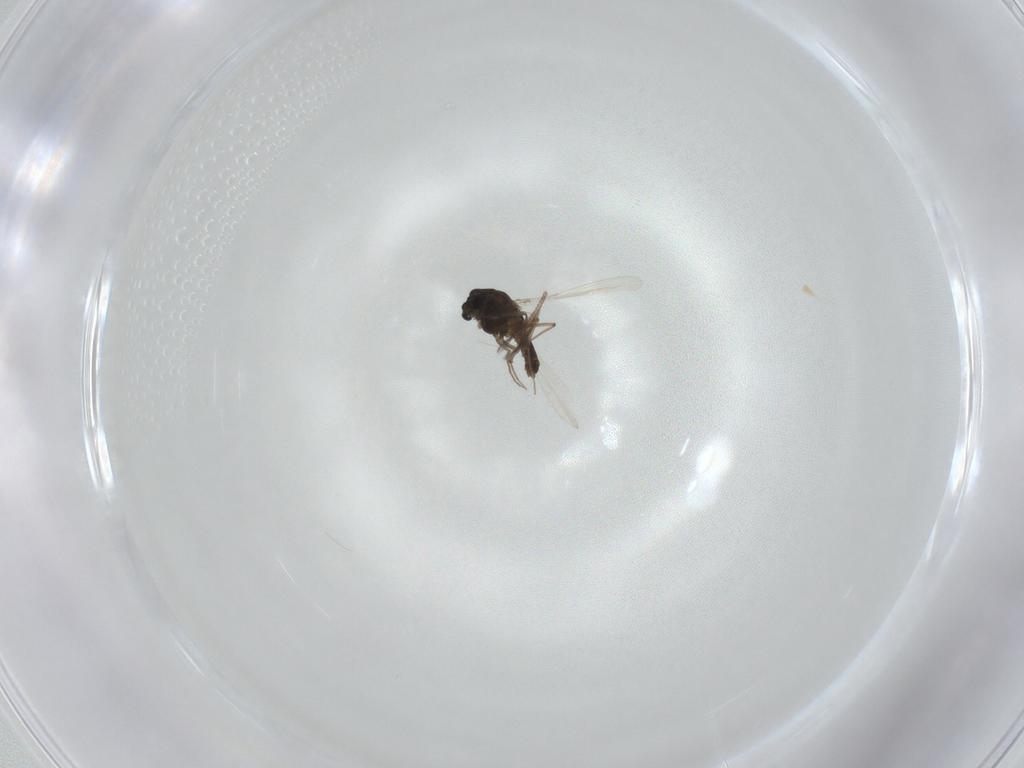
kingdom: Animalia
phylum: Arthropoda
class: Insecta
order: Diptera
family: Chironomidae
